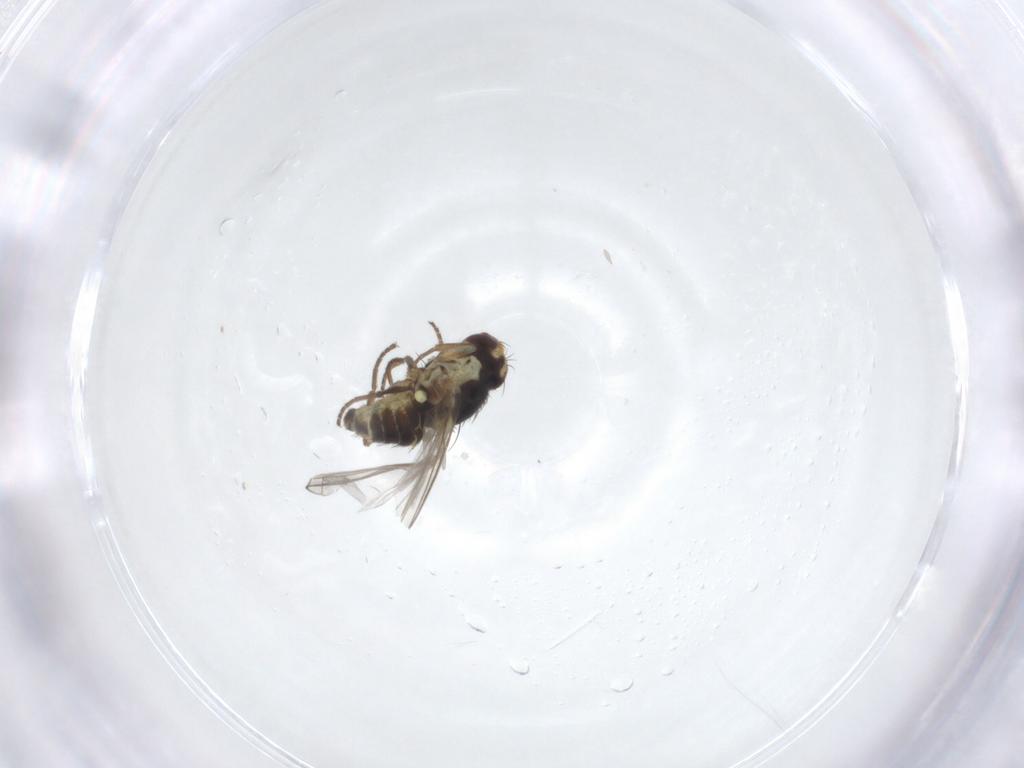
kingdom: Animalia
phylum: Arthropoda
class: Insecta
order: Diptera
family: Agromyzidae
